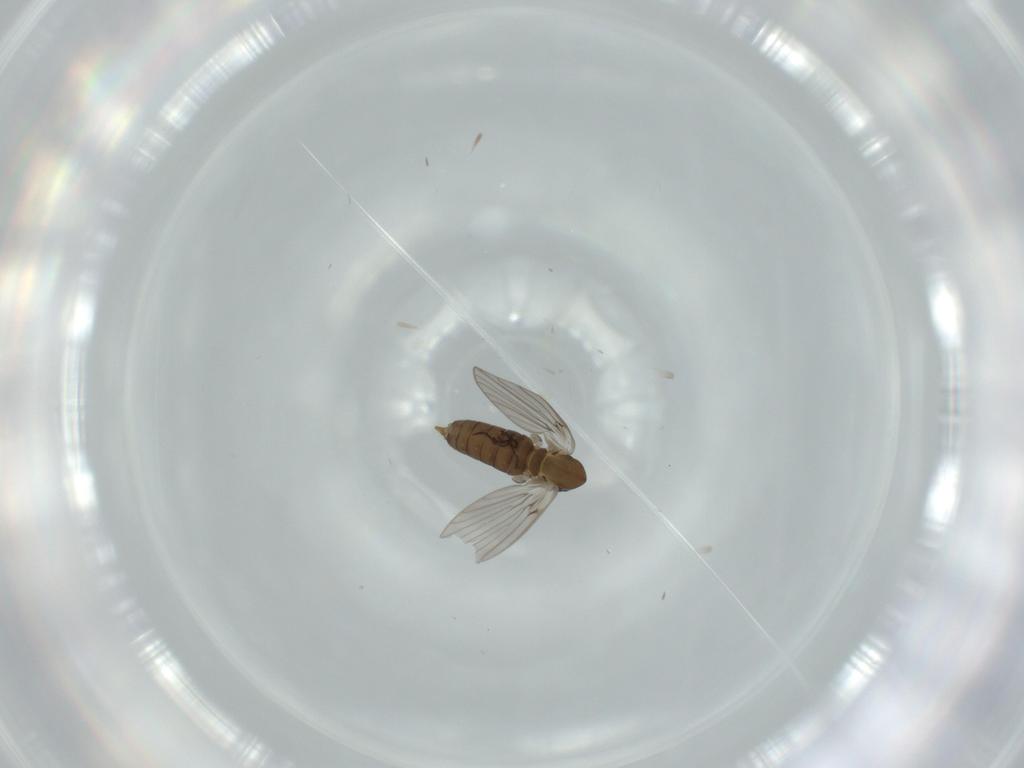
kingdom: Animalia
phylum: Arthropoda
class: Insecta
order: Diptera
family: Psychodidae
